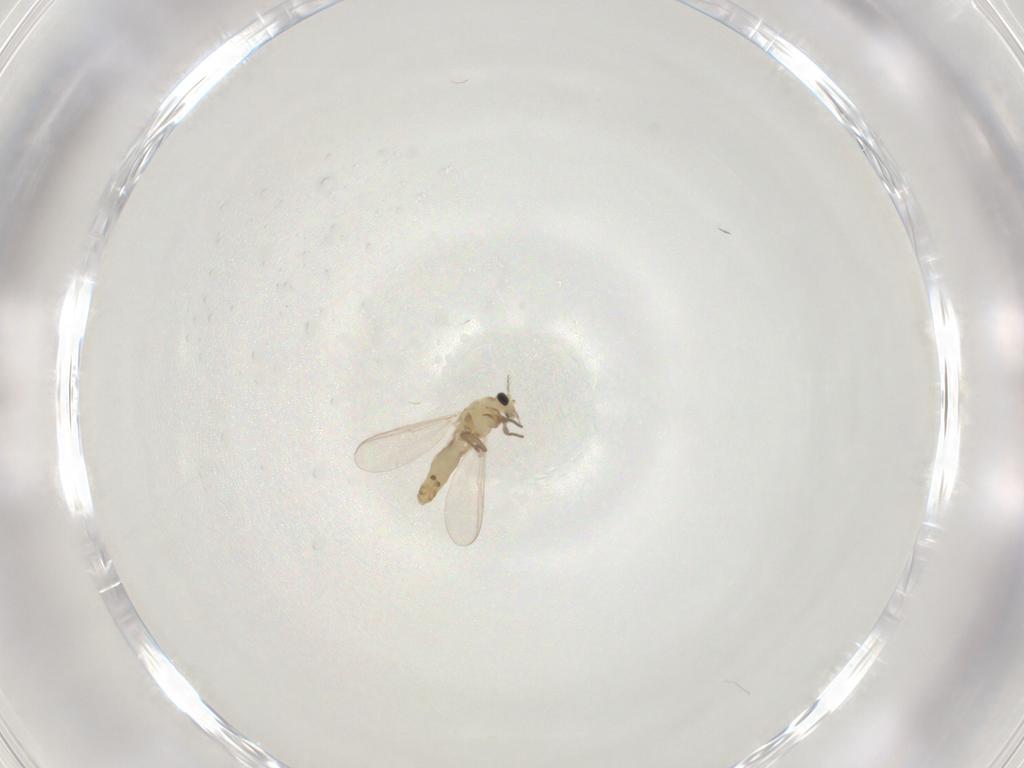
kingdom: Animalia
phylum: Arthropoda
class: Insecta
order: Diptera
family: Chironomidae
